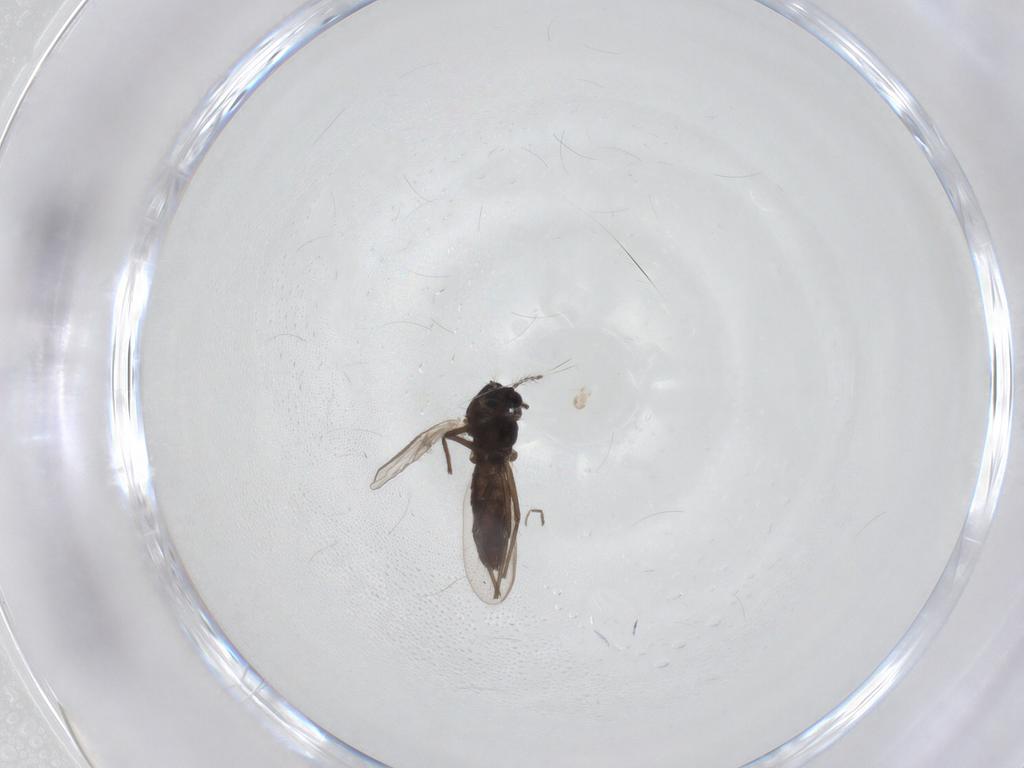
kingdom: Animalia
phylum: Arthropoda
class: Insecta
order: Diptera
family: Chironomidae
